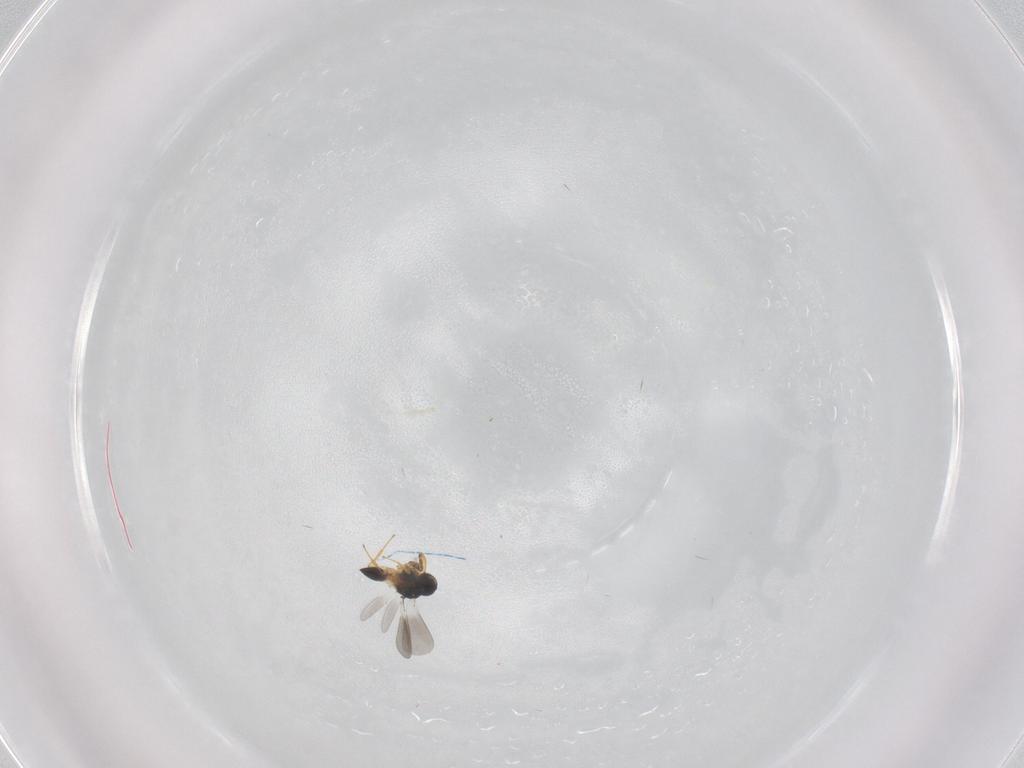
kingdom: Animalia
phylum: Arthropoda
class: Insecta
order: Hymenoptera
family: Platygastridae
